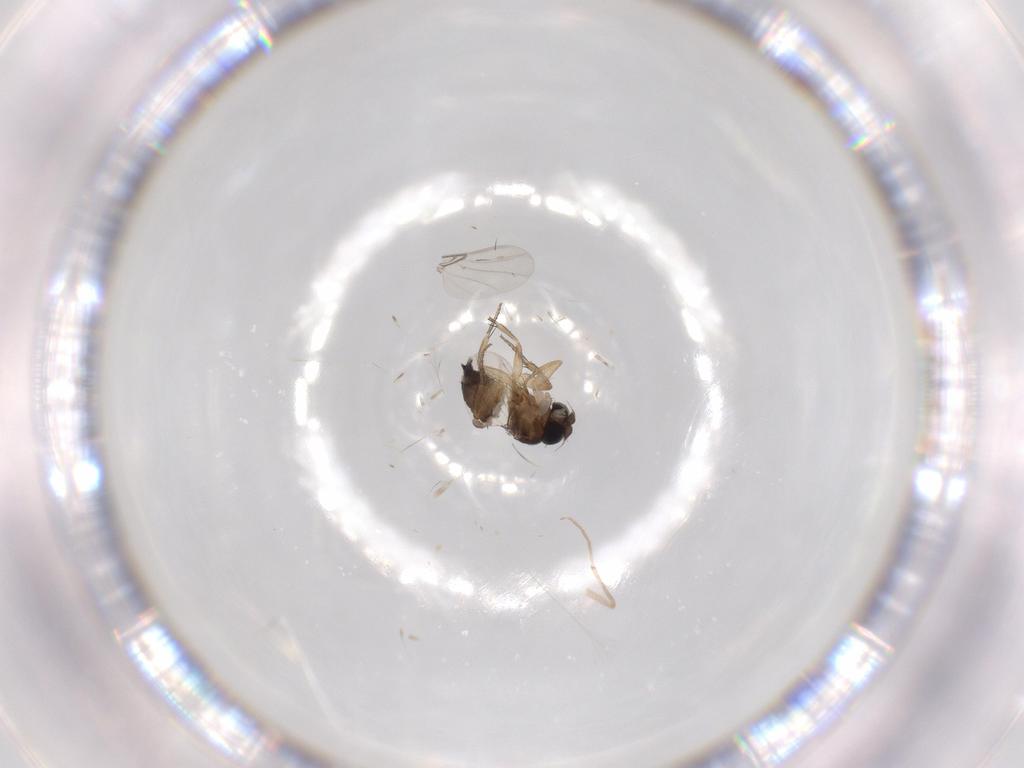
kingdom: Animalia
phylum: Arthropoda
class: Insecta
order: Diptera
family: Phoridae
